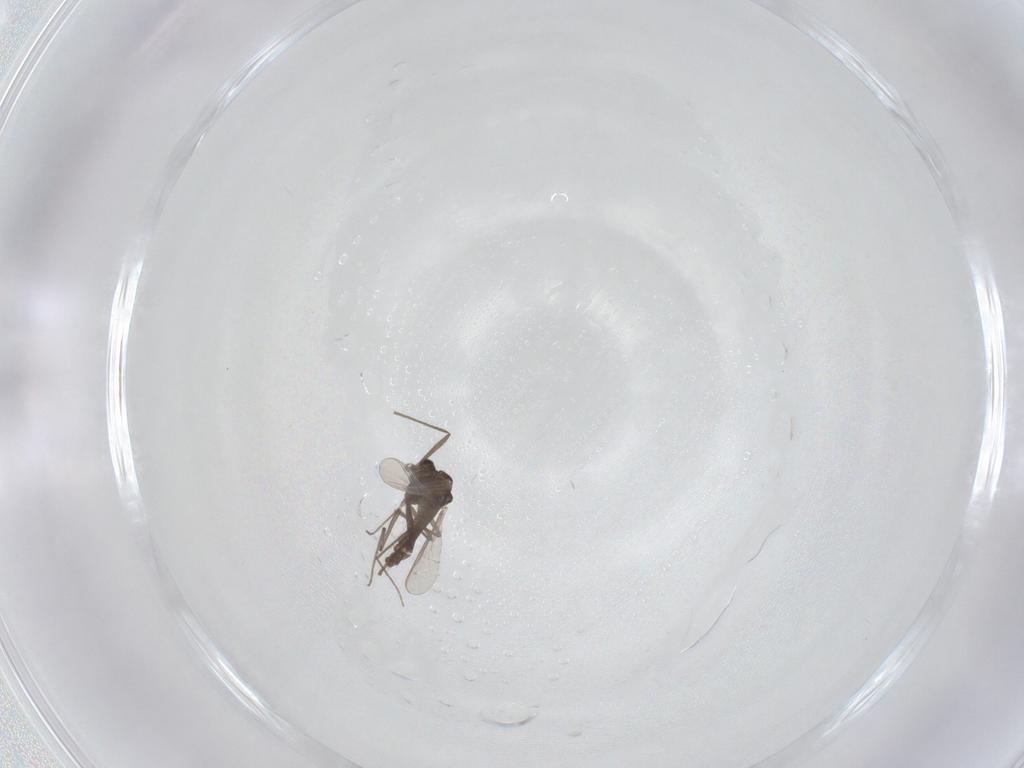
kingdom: Animalia
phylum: Arthropoda
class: Insecta
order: Diptera
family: Chironomidae
